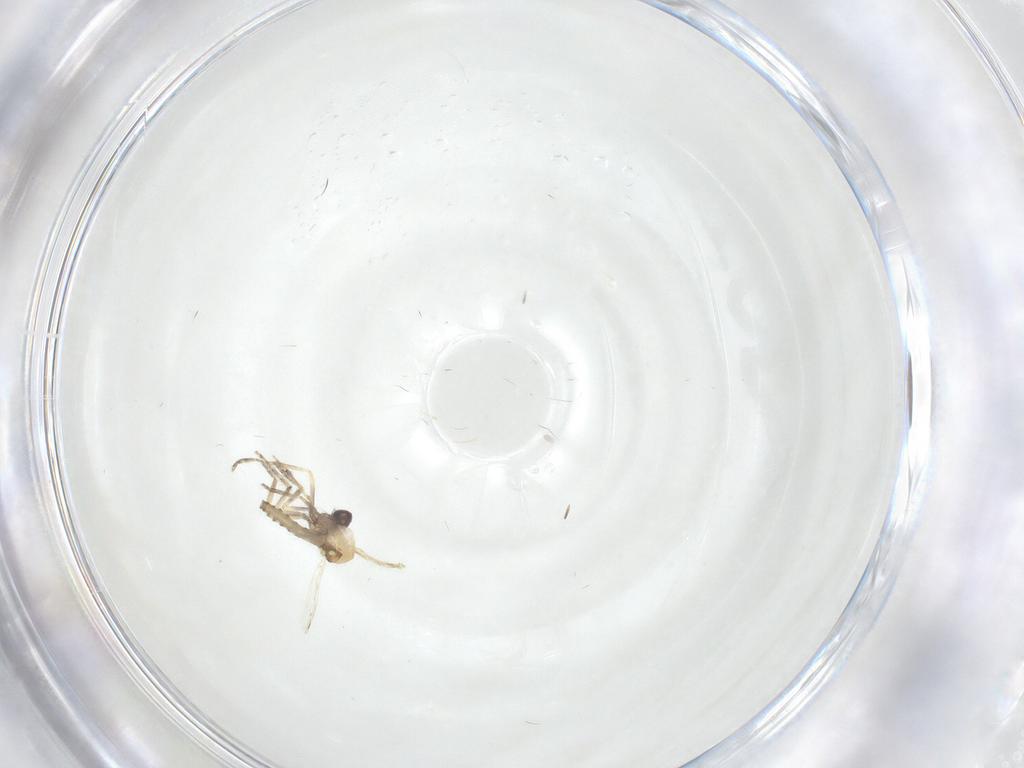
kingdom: Animalia
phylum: Arthropoda
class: Insecta
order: Diptera
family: Ceratopogonidae
